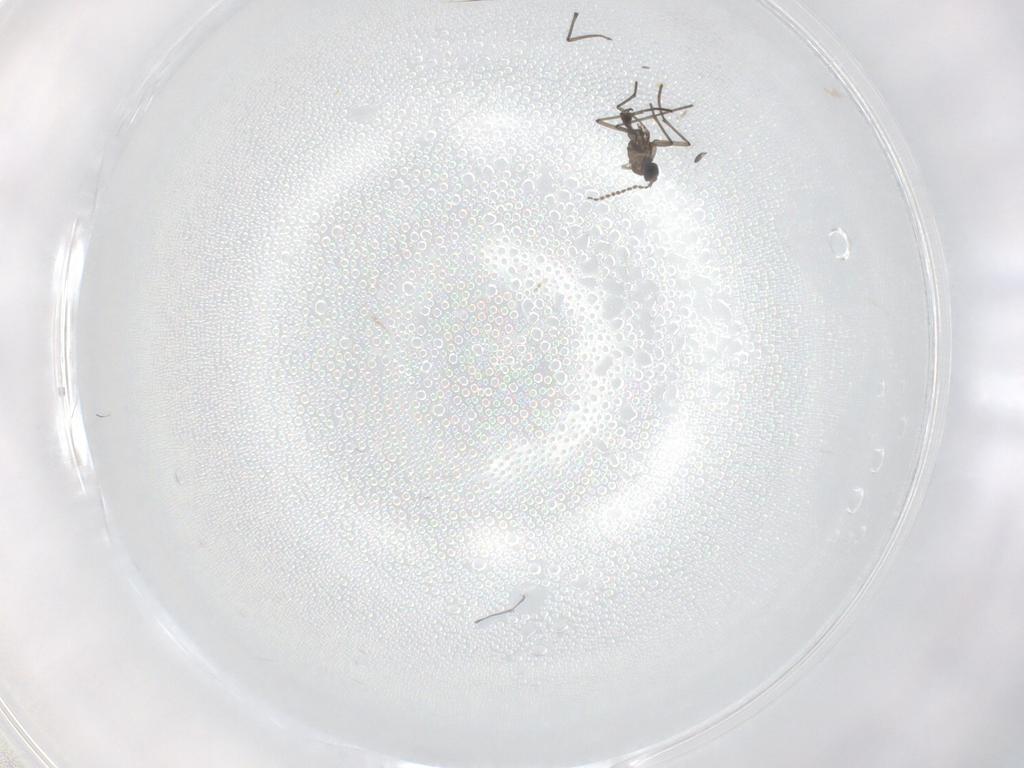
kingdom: Animalia
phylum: Arthropoda
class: Insecta
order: Diptera
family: Sciaridae
